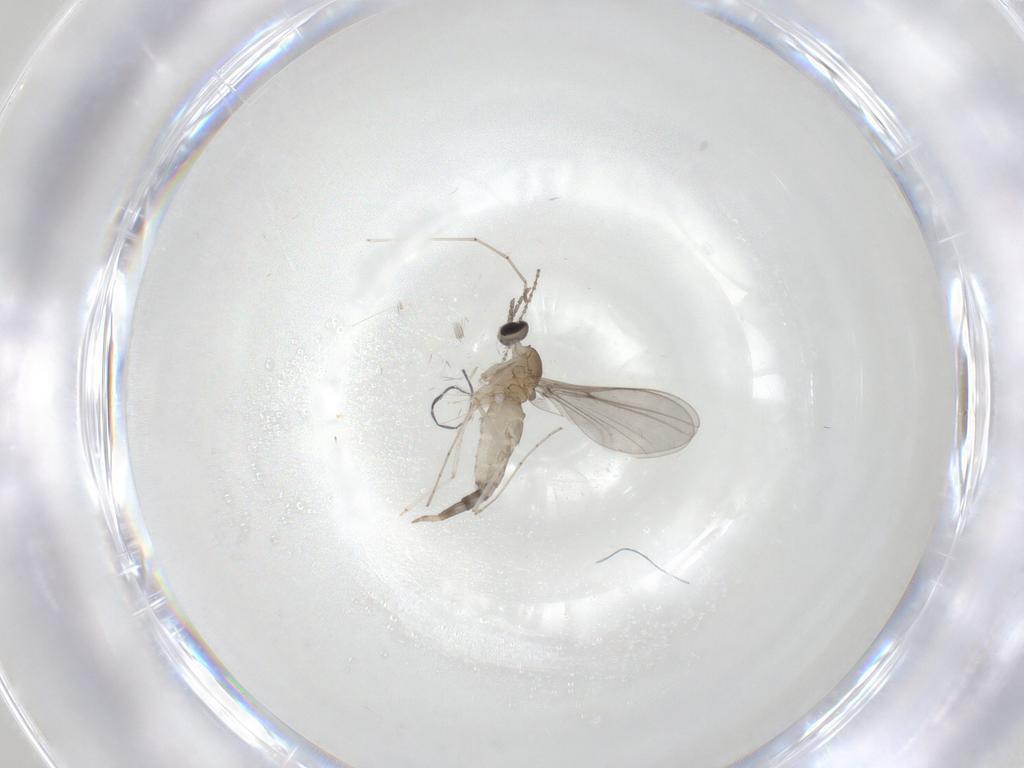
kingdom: Animalia
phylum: Arthropoda
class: Insecta
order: Diptera
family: Cecidomyiidae
